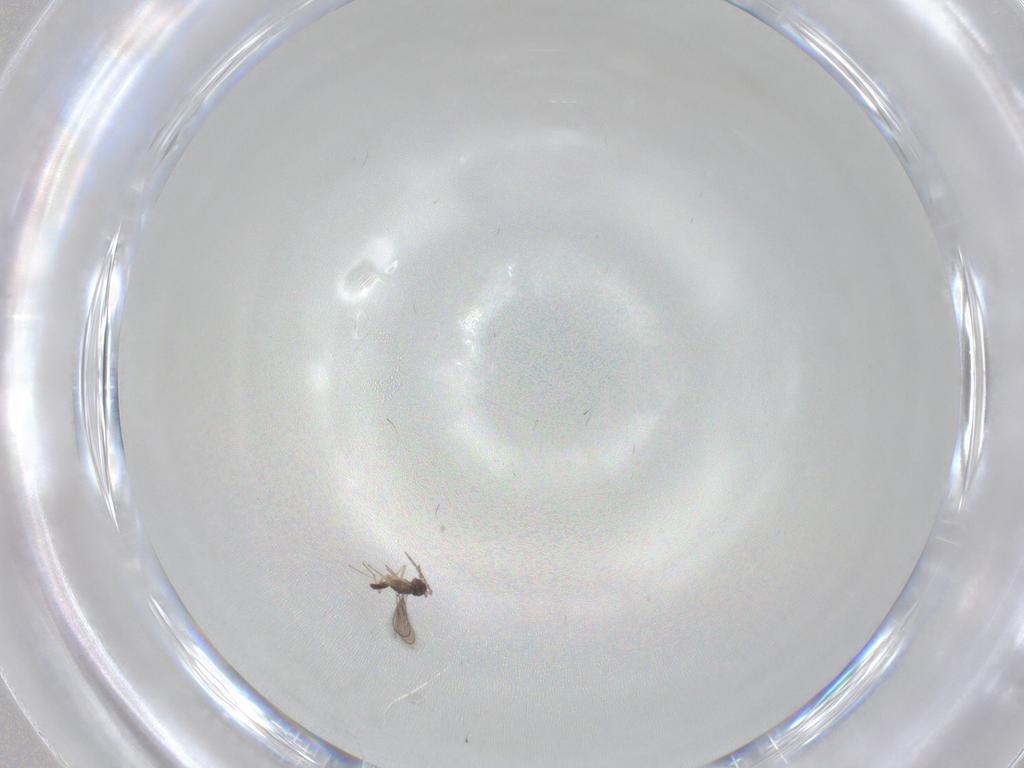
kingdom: Animalia
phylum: Arthropoda
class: Insecta
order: Hymenoptera
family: Eulophidae
